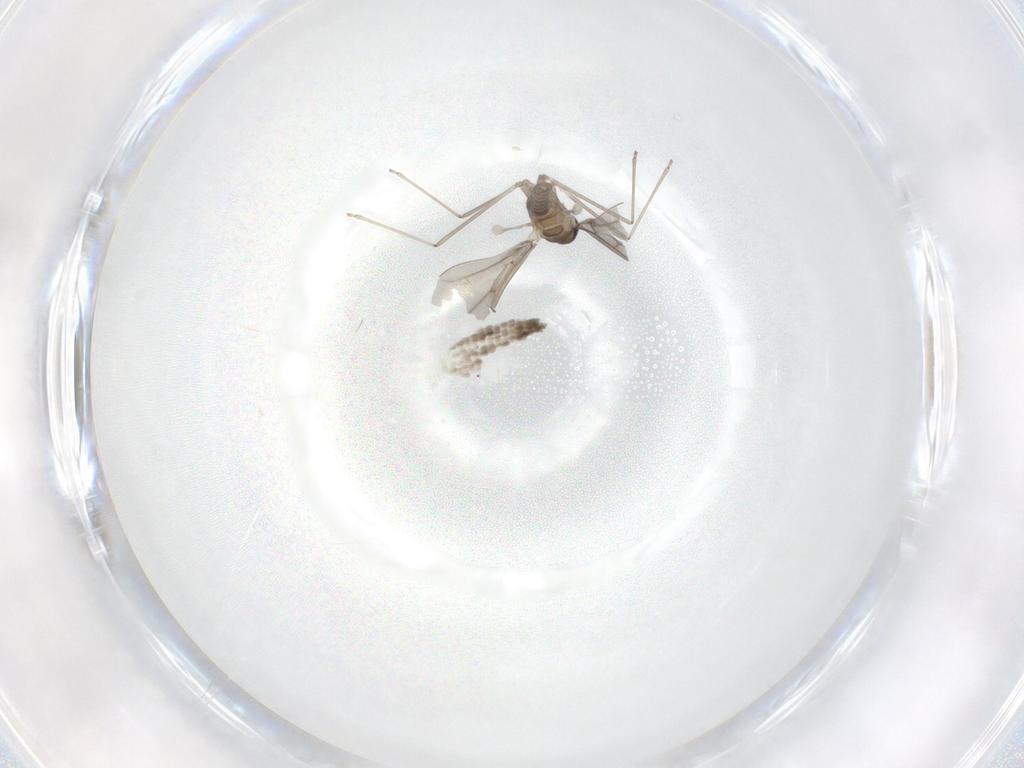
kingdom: Animalia
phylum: Arthropoda
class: Insecta
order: Diptera
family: Cecidomyiidae
